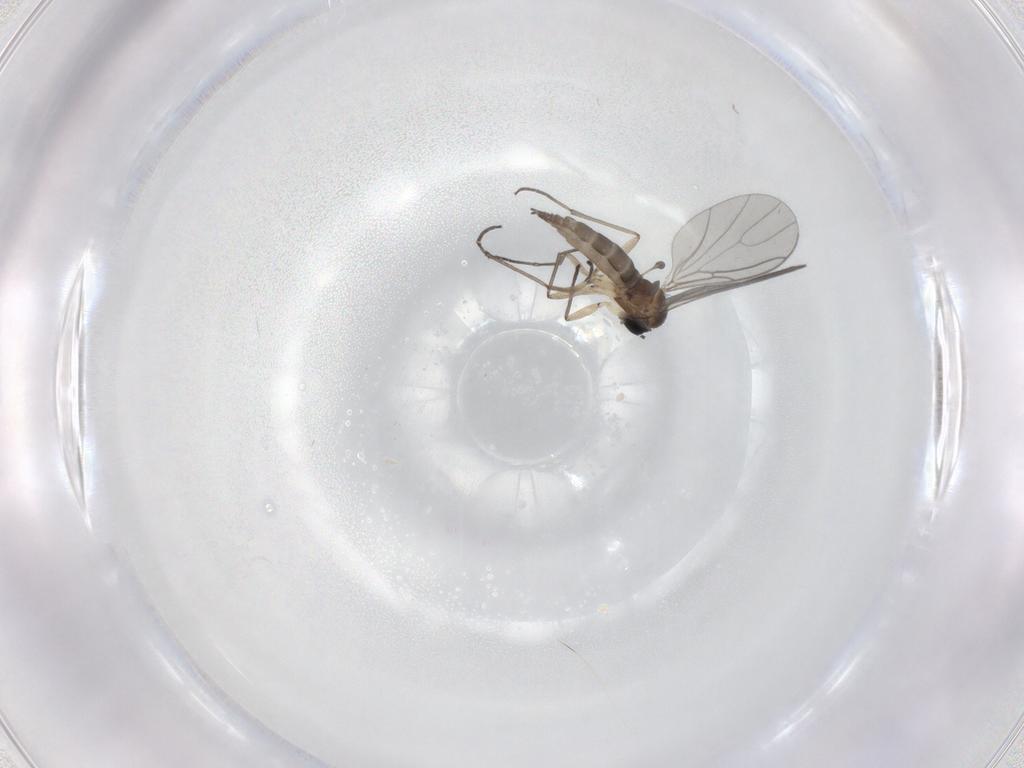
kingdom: Animalia
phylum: Arthropoda
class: Insecta
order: Diptera
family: Sciaridae
